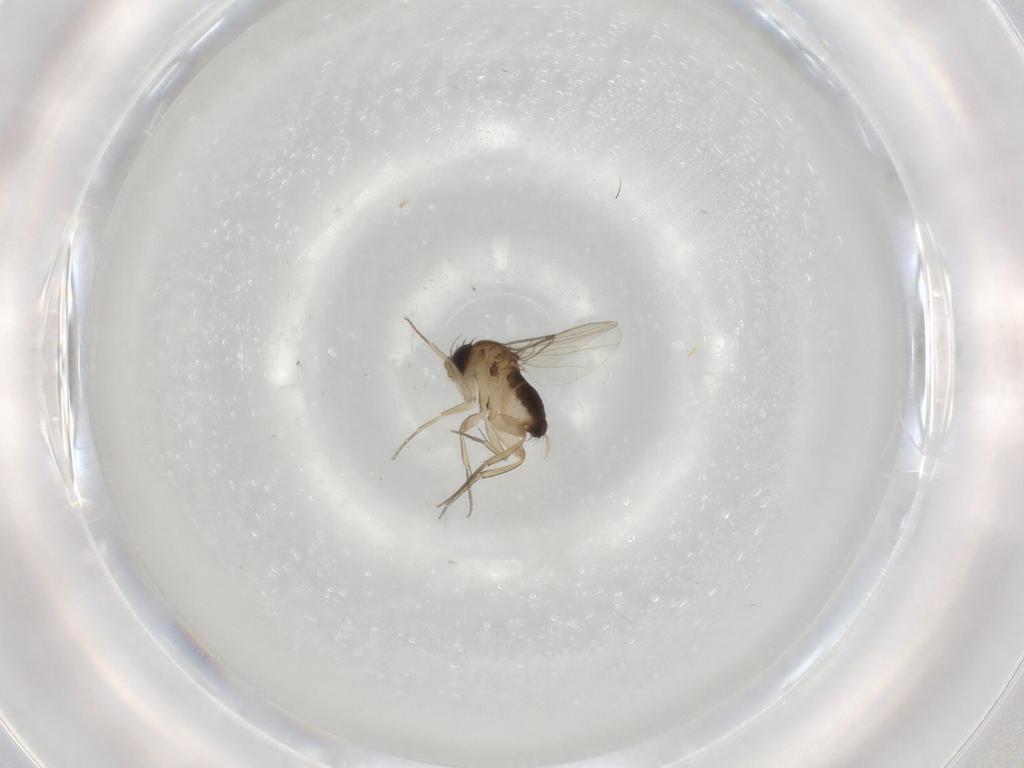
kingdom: Animalia
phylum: Arthropoda
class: Insecta
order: Diptera
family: Phoridae
